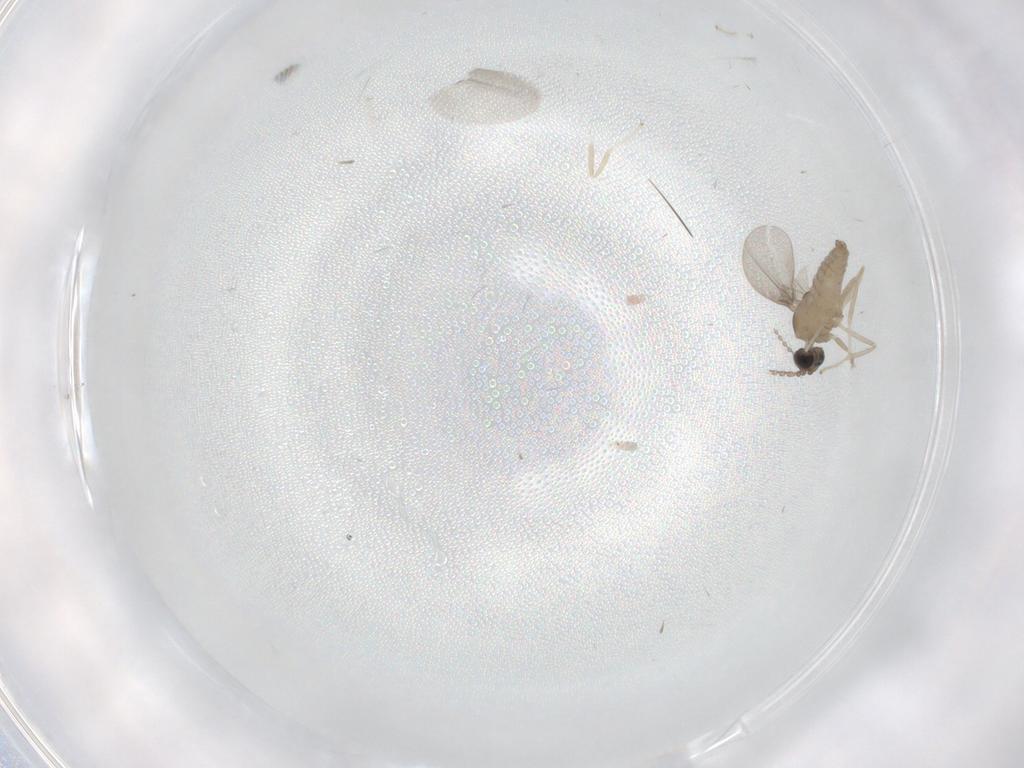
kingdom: Animalia
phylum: Arthropoda
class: Insecta
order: Diptera
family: Cecidomyiidae
